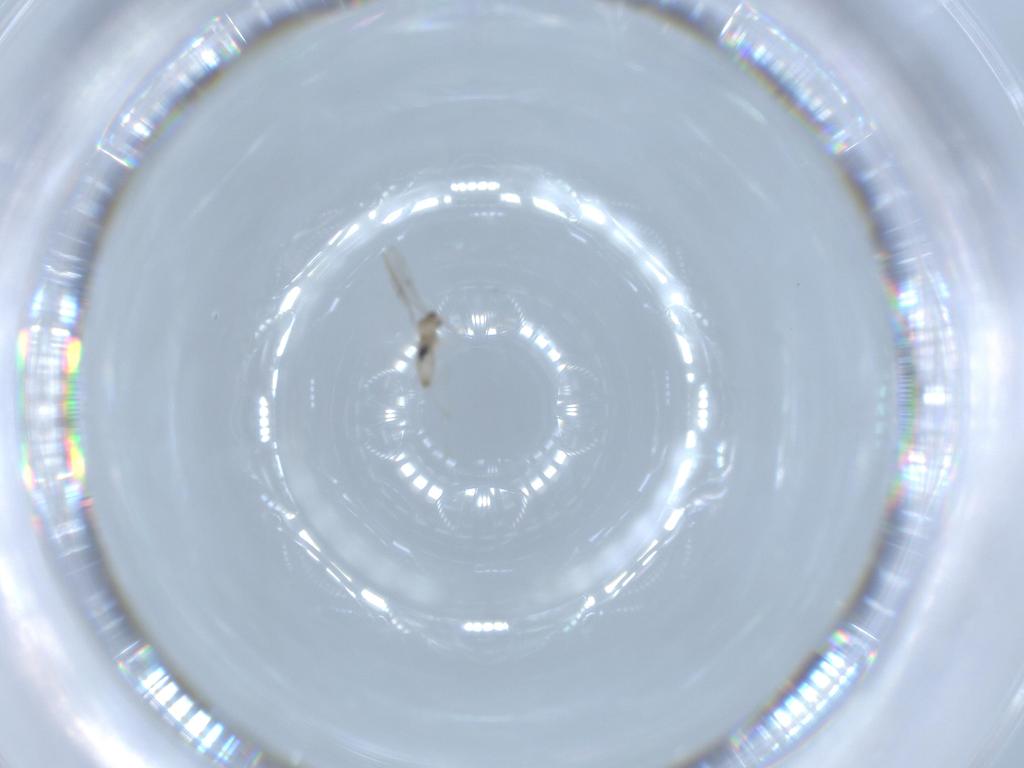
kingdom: Animalia
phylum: Arthropoda
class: Insecta
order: Diptera
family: Cecidomyiidae
